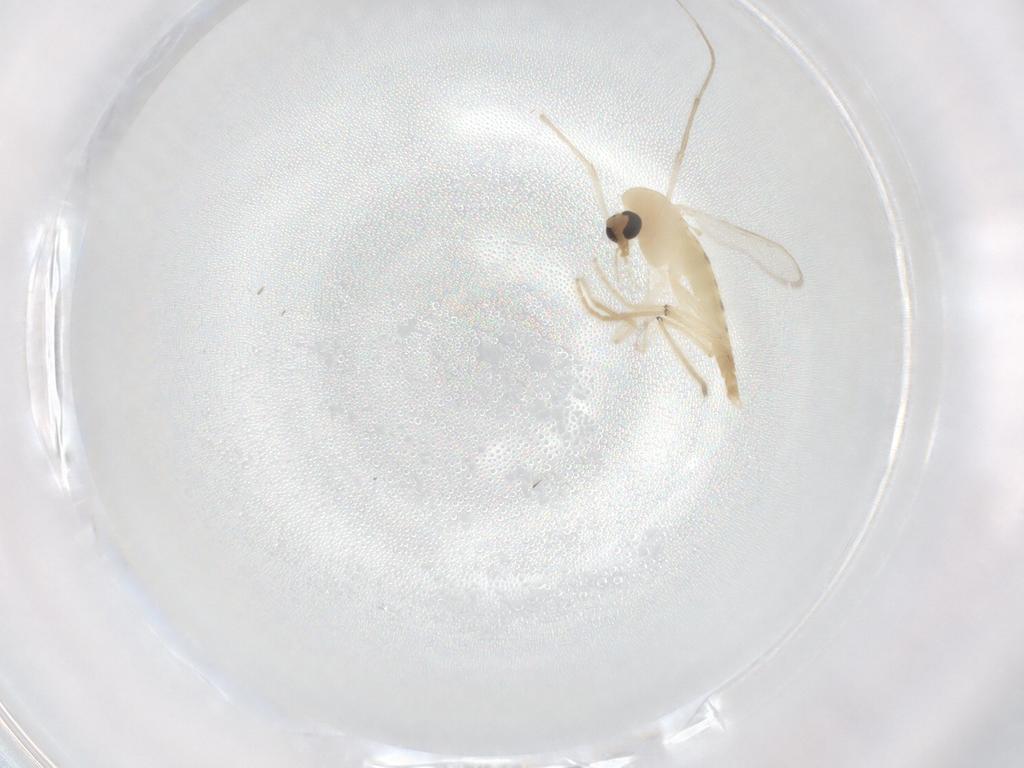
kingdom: Animalia
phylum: Arthropoda
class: Insecta
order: Diptera
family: Chironomidae
